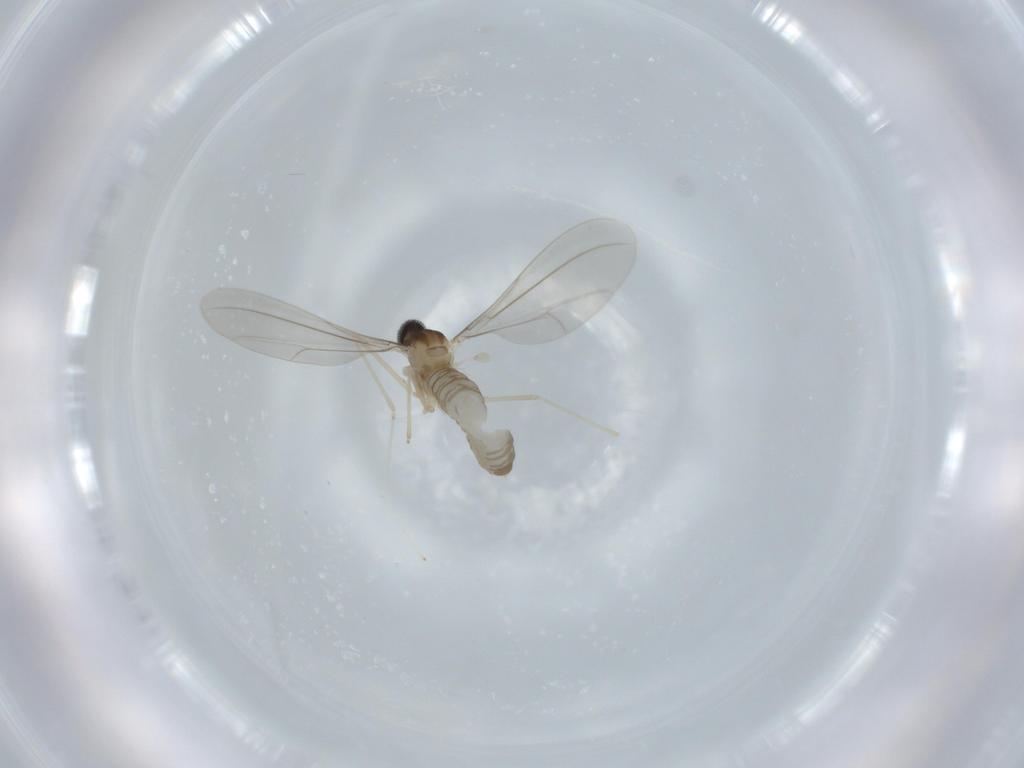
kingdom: Animalia
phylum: Arthropoda
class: Insecta
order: Diptera
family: Cecidomyiidae
